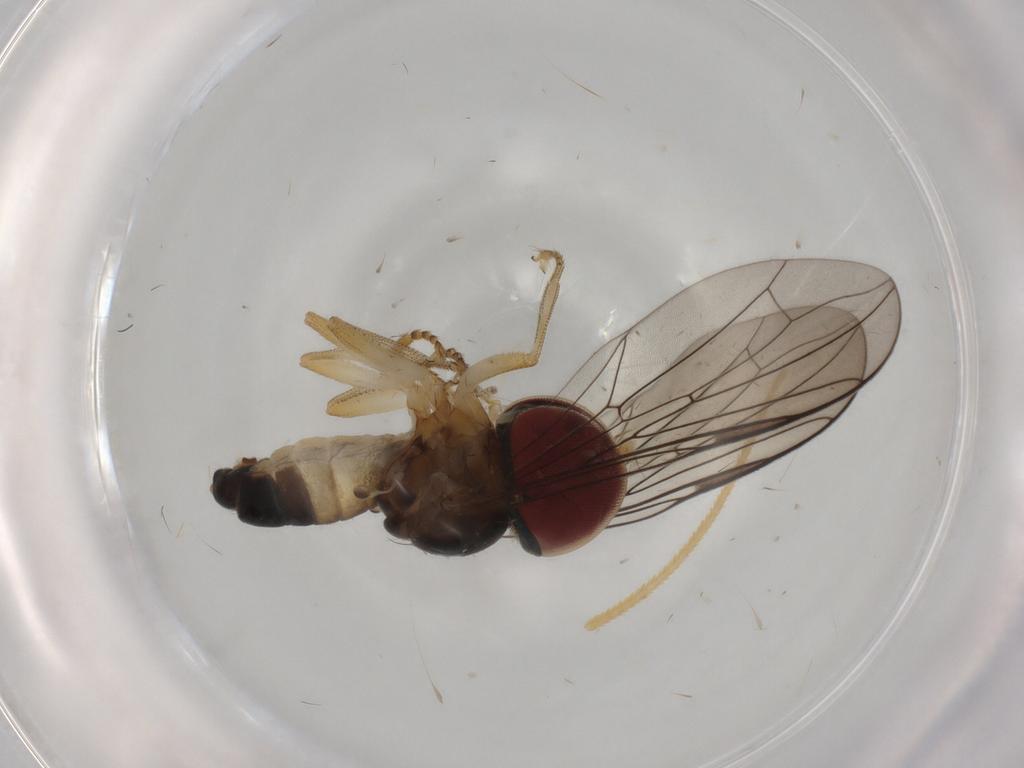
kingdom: Animalia
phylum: Arthropoda
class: Insecta
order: Diptera
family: Pipunculidae
